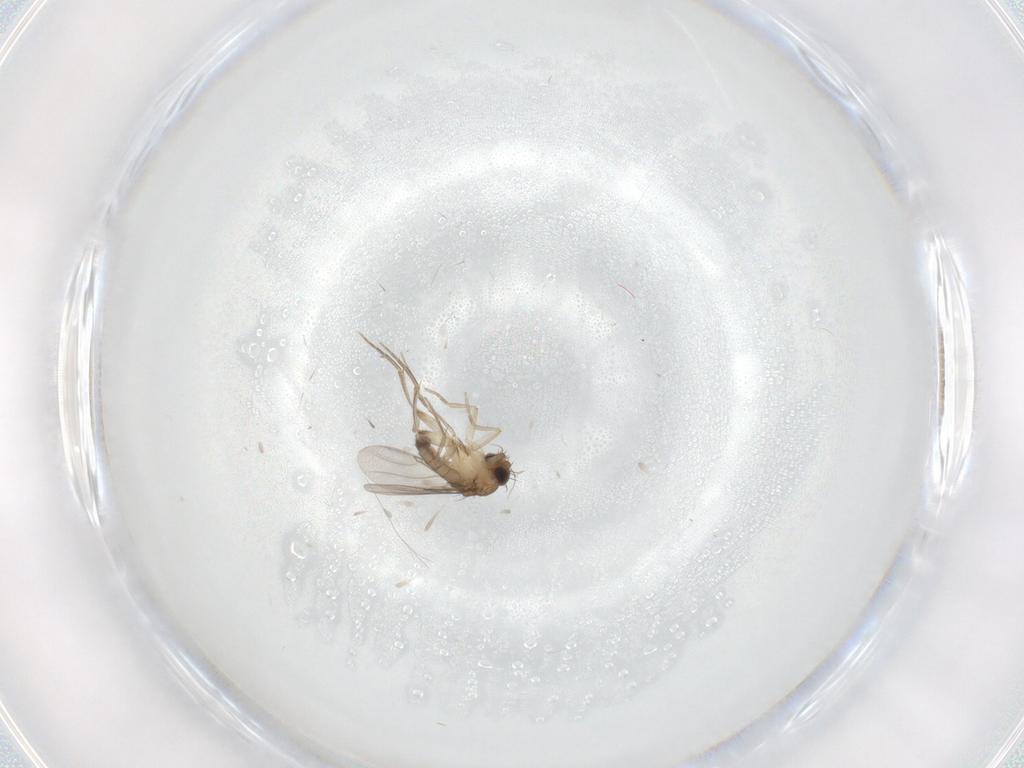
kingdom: Animalia
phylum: Arthropoda
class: Insecta
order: Diptera
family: Phoridae
